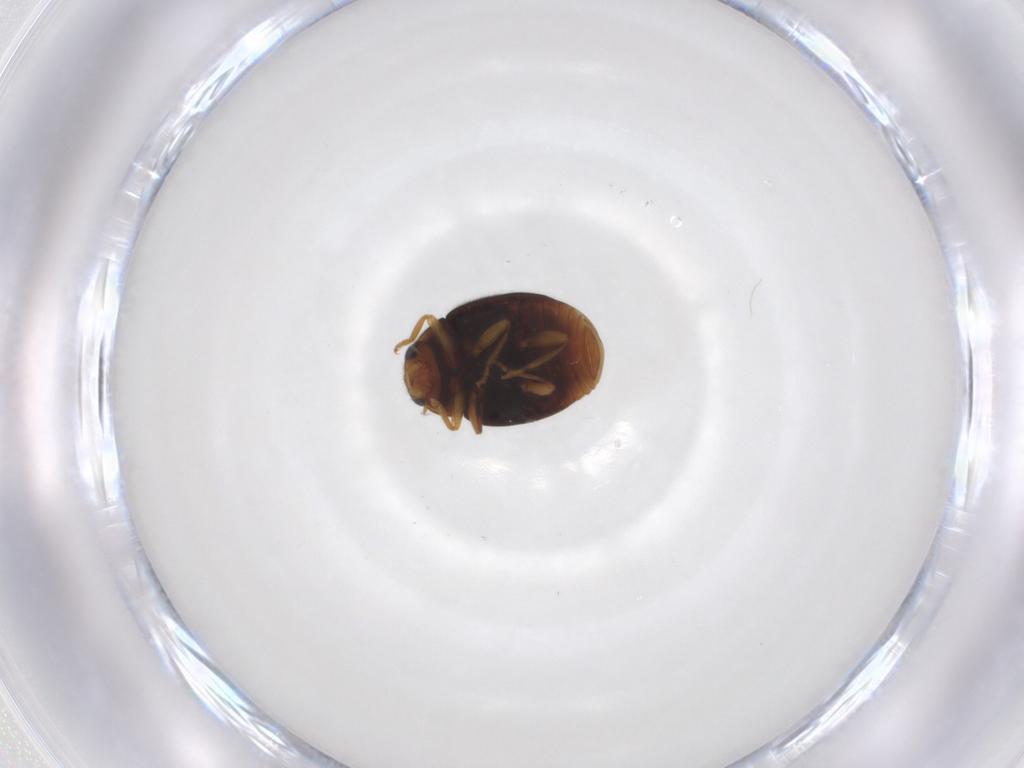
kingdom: Animalia
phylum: Arthropoda
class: Insecta
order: Coleoptera
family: Coccinellidae
